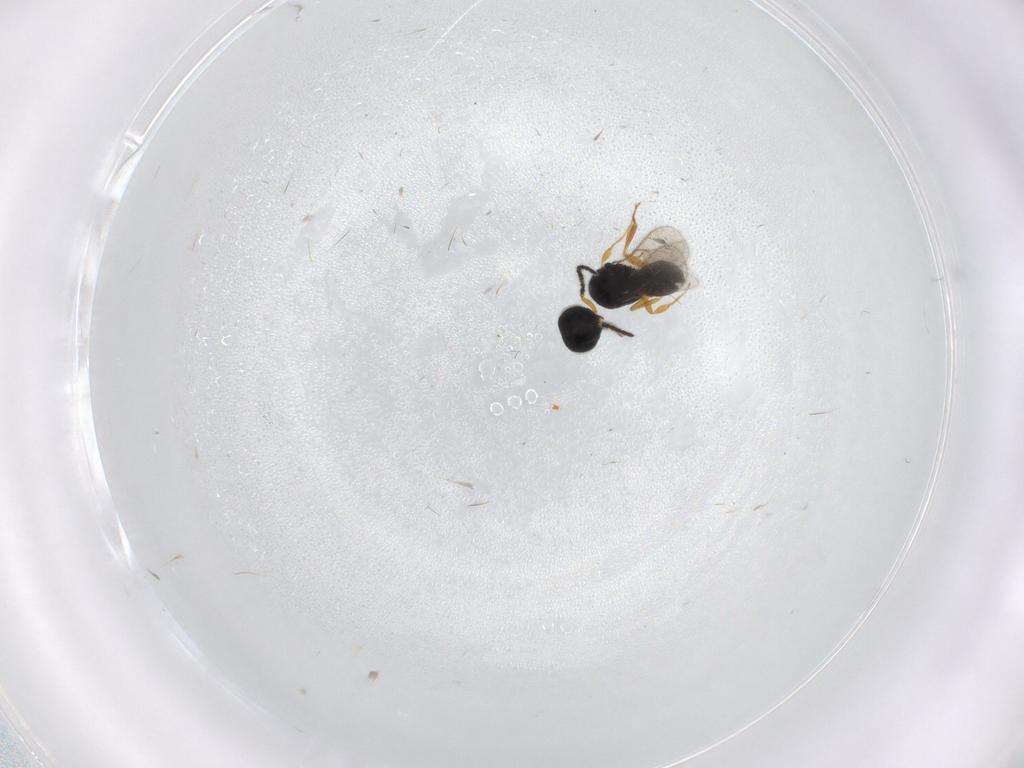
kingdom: Animalia
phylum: Arthropoda
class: Insecta
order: Hymenoptera
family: Scelionidae
